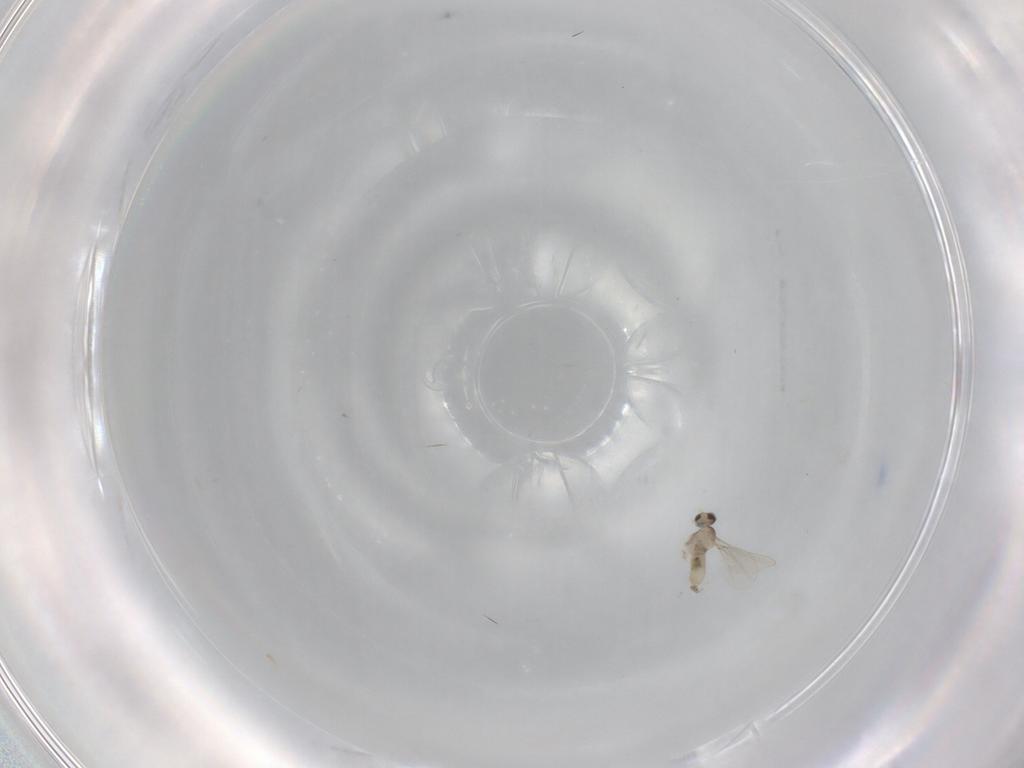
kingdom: Animalia
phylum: Arthropoda
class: Insecta
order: Diptera
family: Cecidomyiidae
